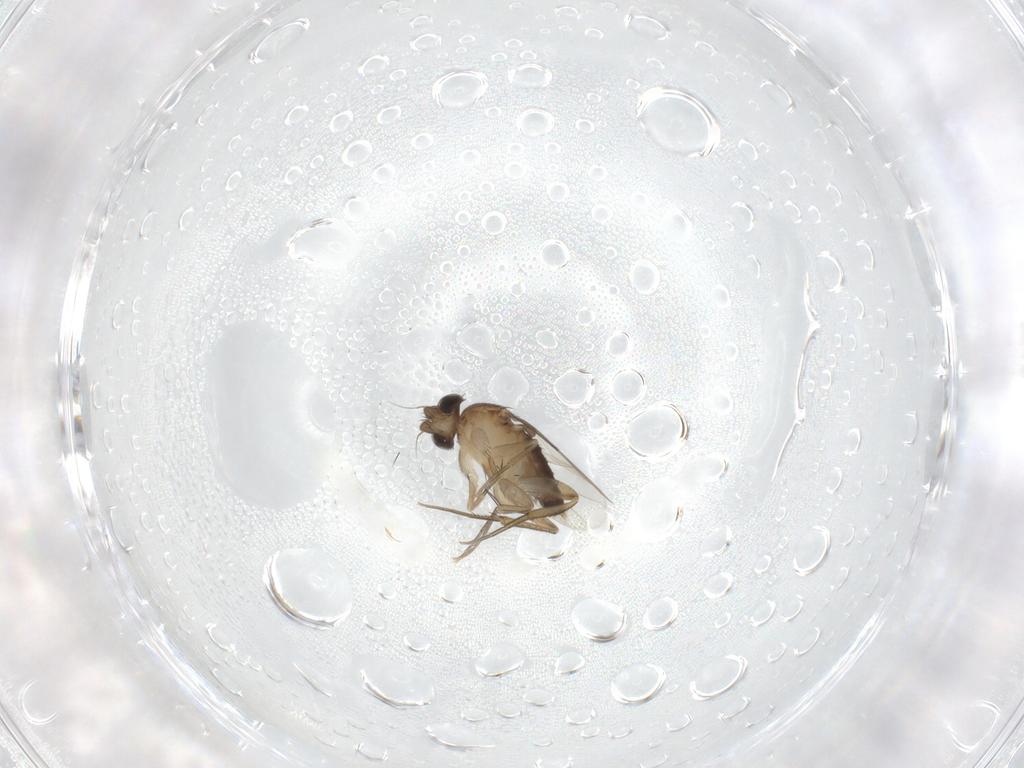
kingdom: Animalia
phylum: Arthropoda
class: Insecta
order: Diptera
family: Phoridae
